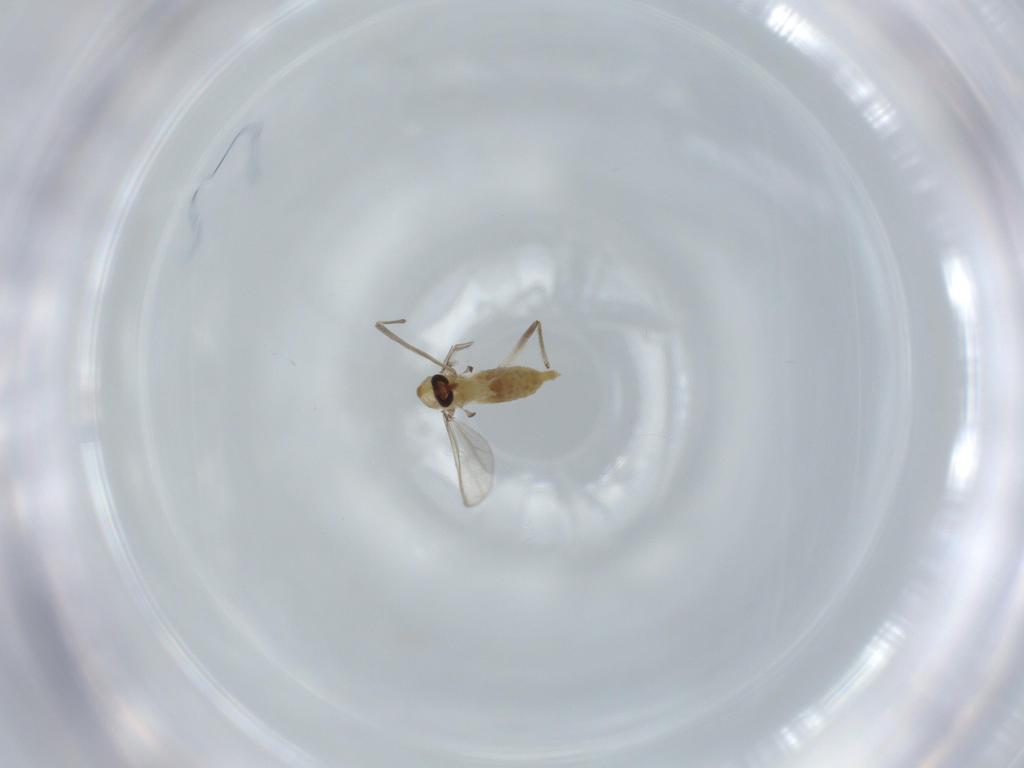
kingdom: Animalia
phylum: Arthropoda
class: Insecta
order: Diptera
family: Chironomidae
